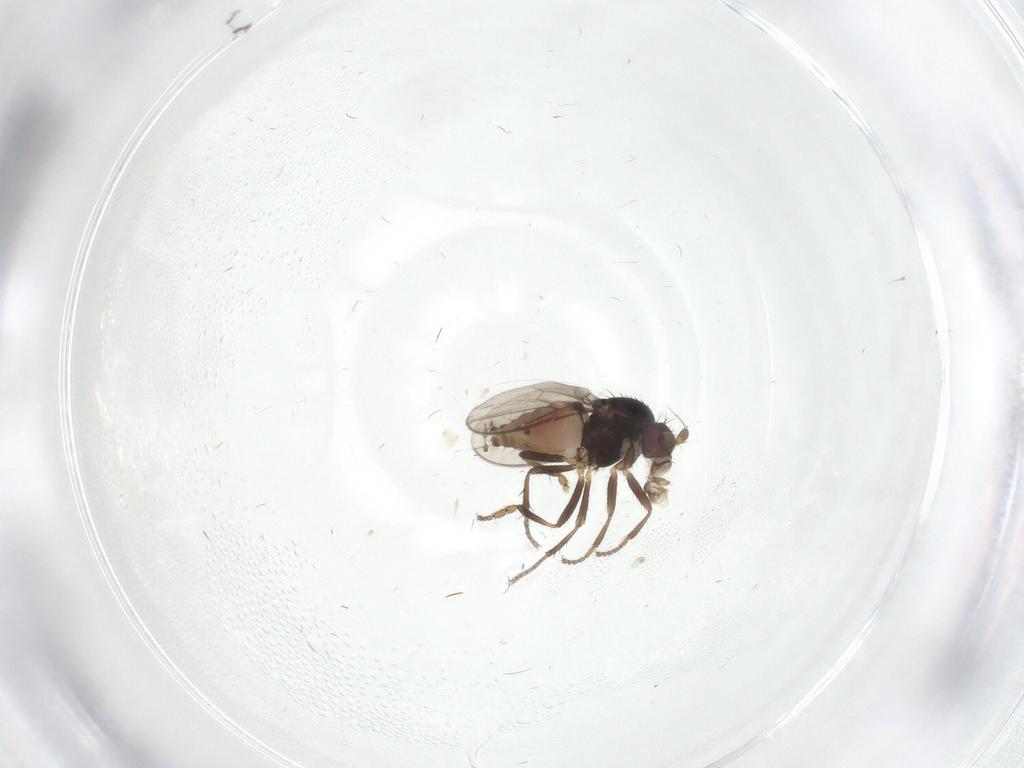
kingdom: Animalia
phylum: Arthropoda
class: Insecta
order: Diptera
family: Sphaeroceridae
